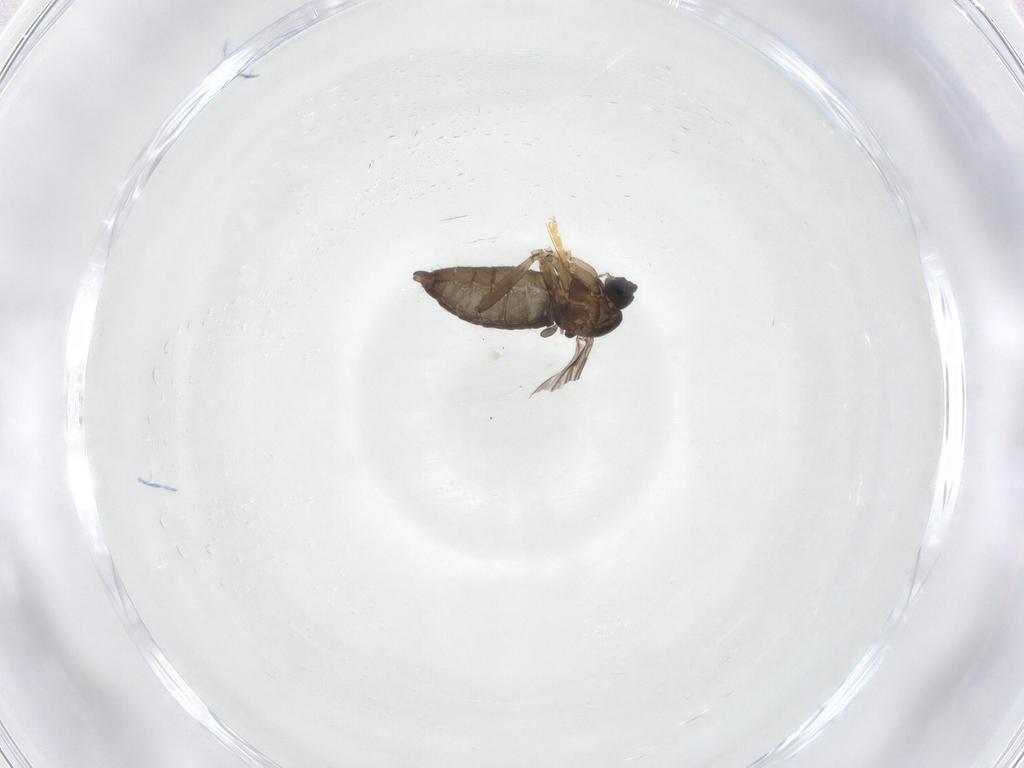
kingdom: Animalia
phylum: Arthropoda
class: Insecta
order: Diptera
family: Sciaridae
